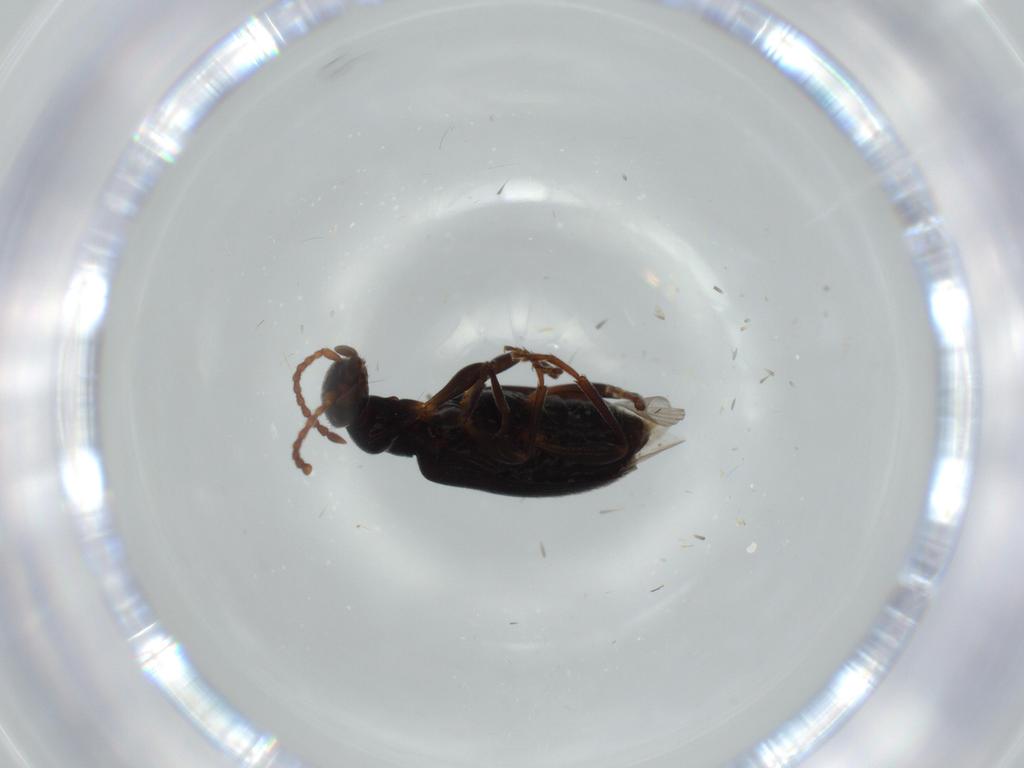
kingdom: Animalia
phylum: Arthropoda
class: Insecta
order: Coleoptera
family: Anthicidae
